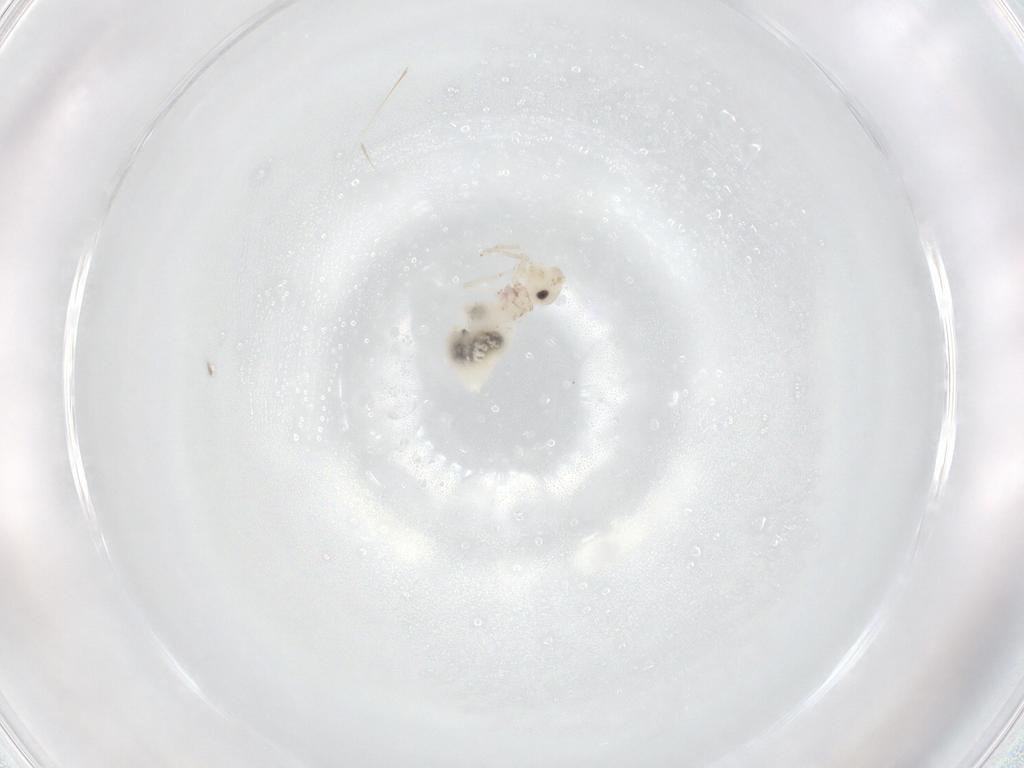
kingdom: Animalia
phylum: Arthropoda
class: Insecta
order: Psocodea
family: Caeciliusidae
